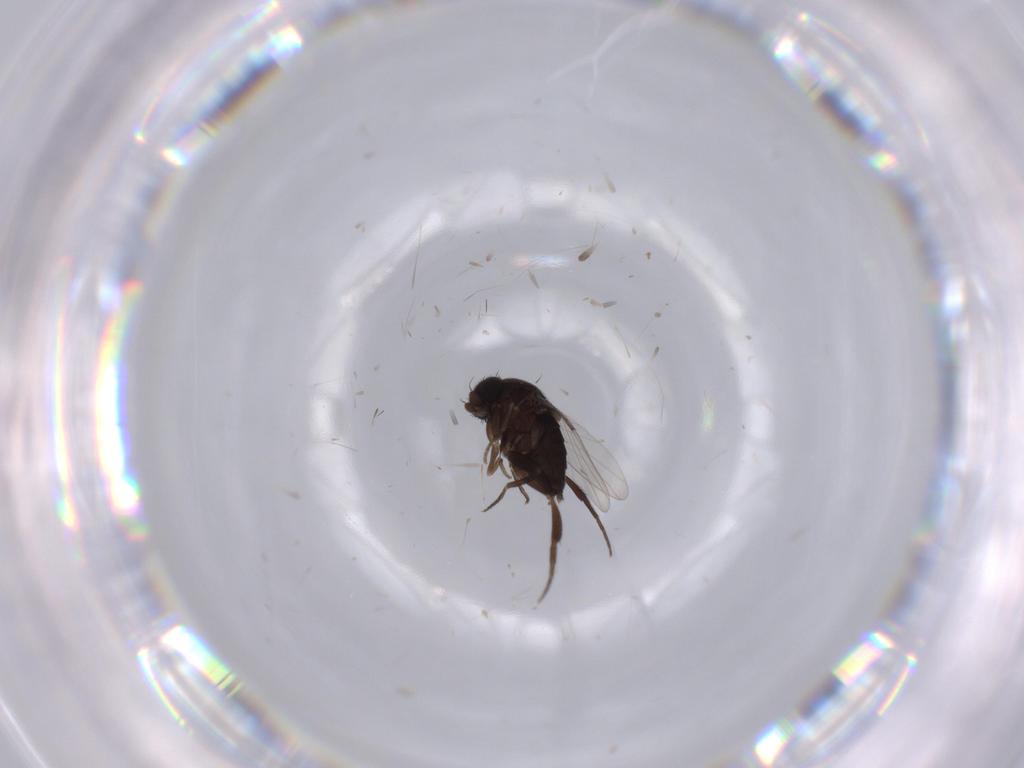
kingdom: Animalia
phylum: Arthropoda
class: Insecta
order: Diptera
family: Phoridae
